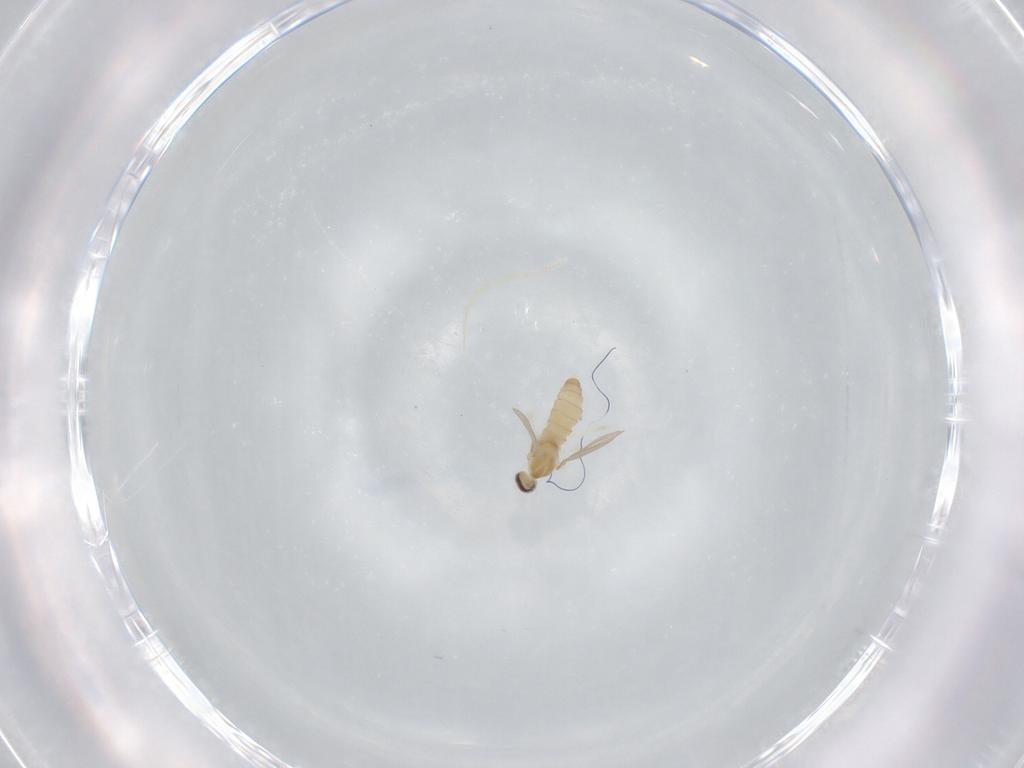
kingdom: Animalia
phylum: Arthropoda
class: Insecta
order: Diptera
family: Cecidomyiidae
